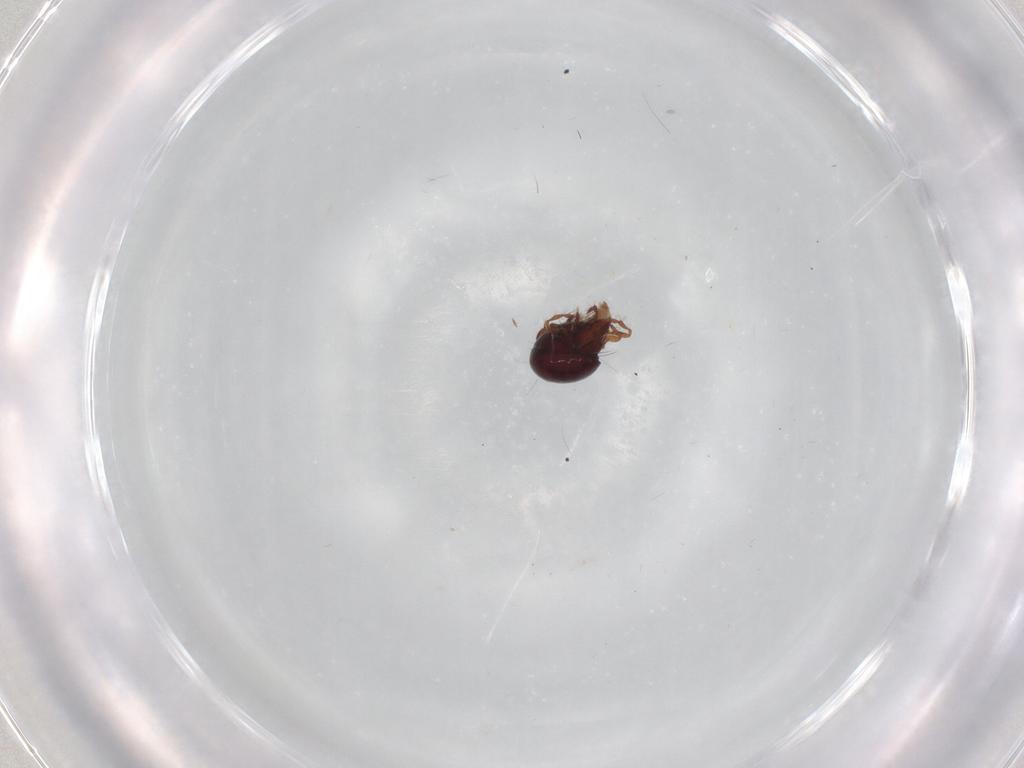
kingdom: Animalia
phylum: Arthropoda
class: Arachnida
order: Sarcoptiformes
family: Ceratoppiidae
